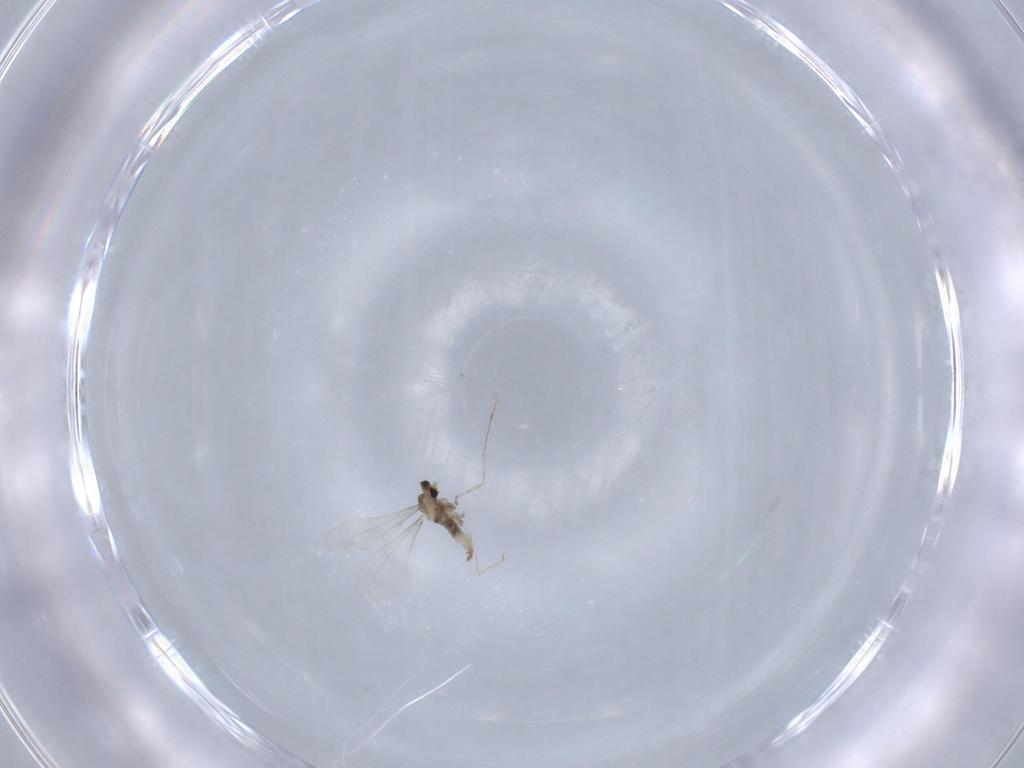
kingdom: Animalia
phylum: Arthropoda
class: Insecta
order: Diptera
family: Cecidomyiidae
